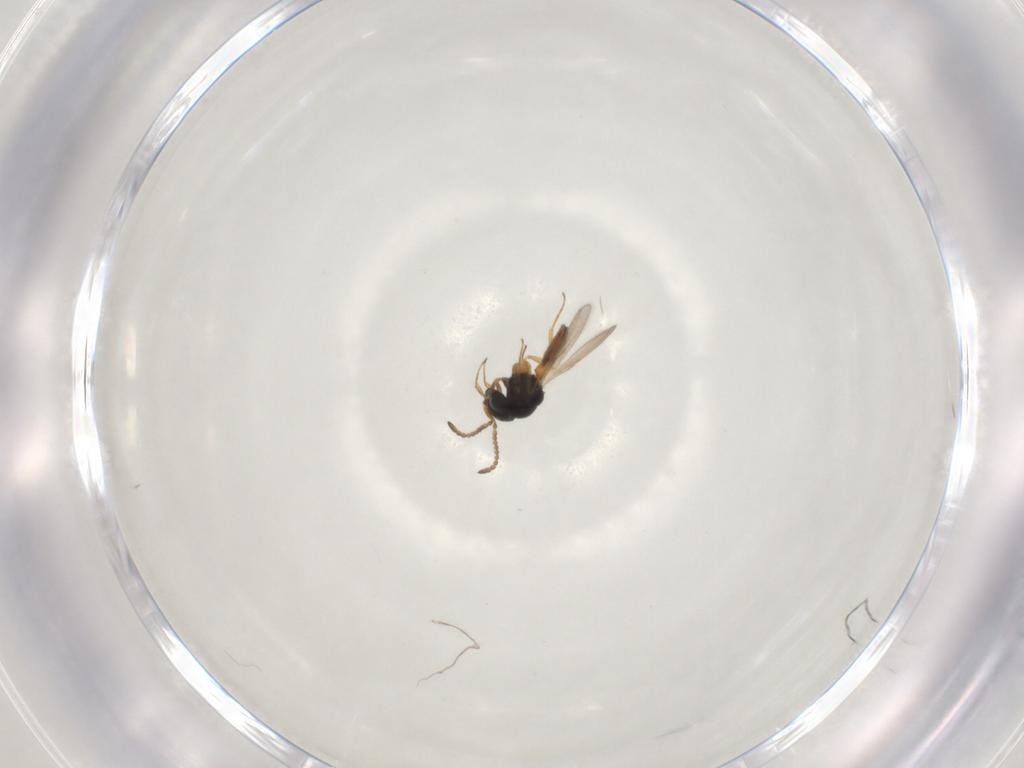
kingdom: Animalia
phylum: Arthropoda
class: Insecta
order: Hymenoptera
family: Scelionidae
